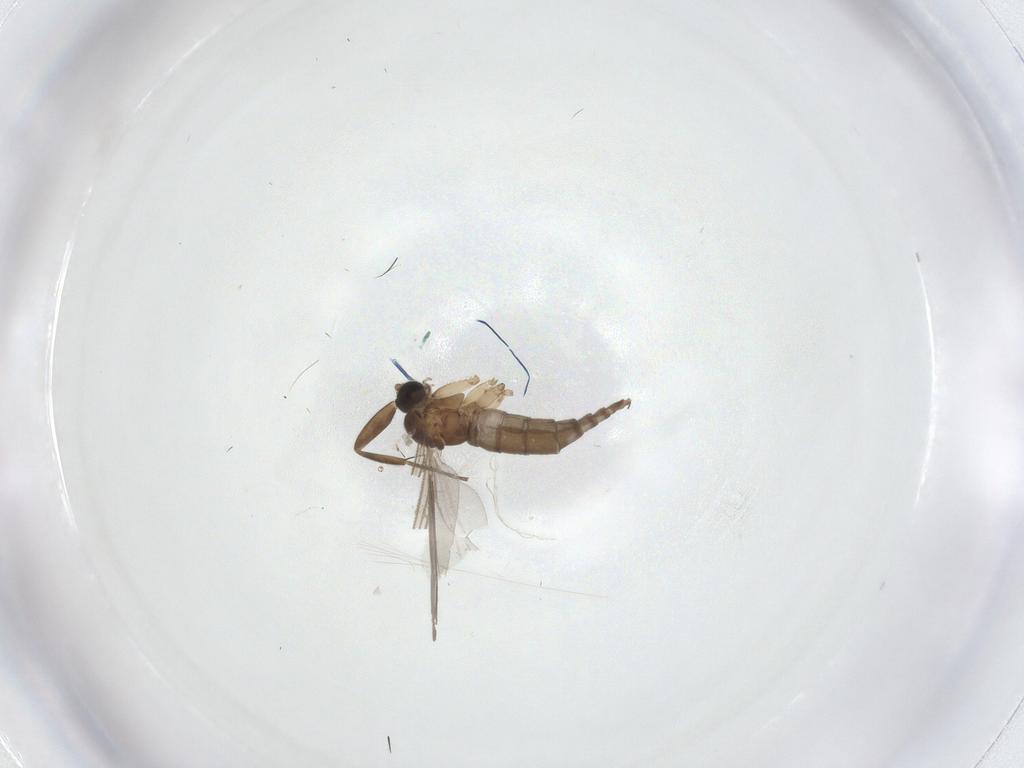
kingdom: Animalia
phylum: Arthropoda
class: Insecta
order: Diptera
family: Sciaridae
